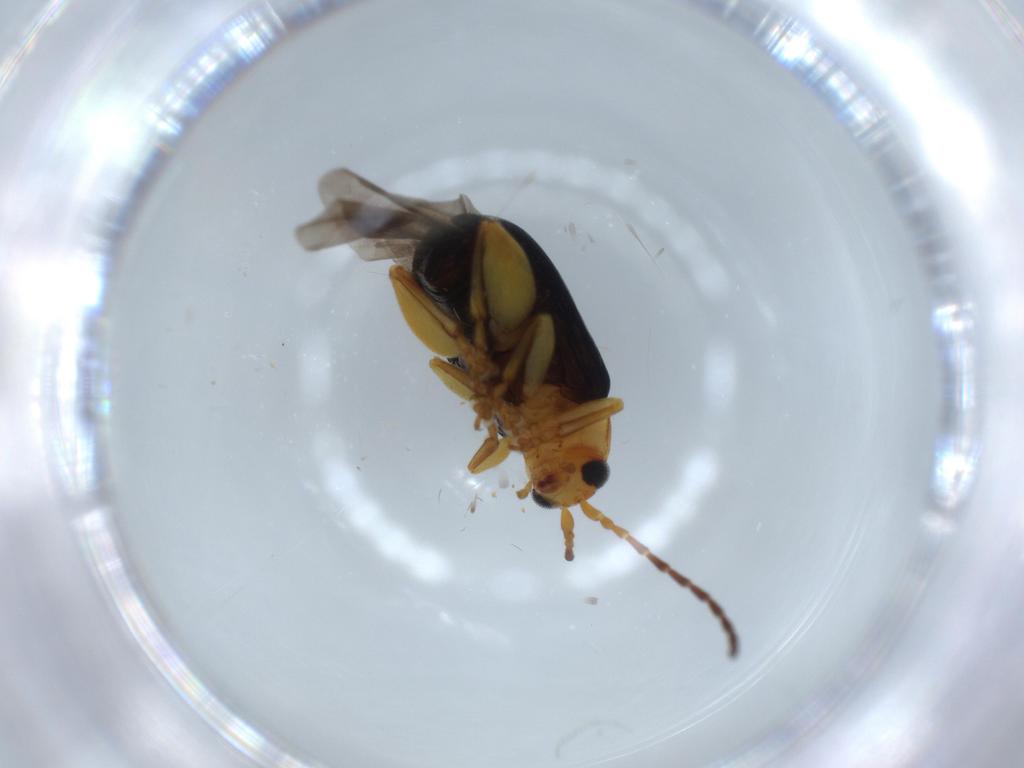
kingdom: Animalia
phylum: Arthropoda
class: Insecta
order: Coleoptera
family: Chrysomelidae
